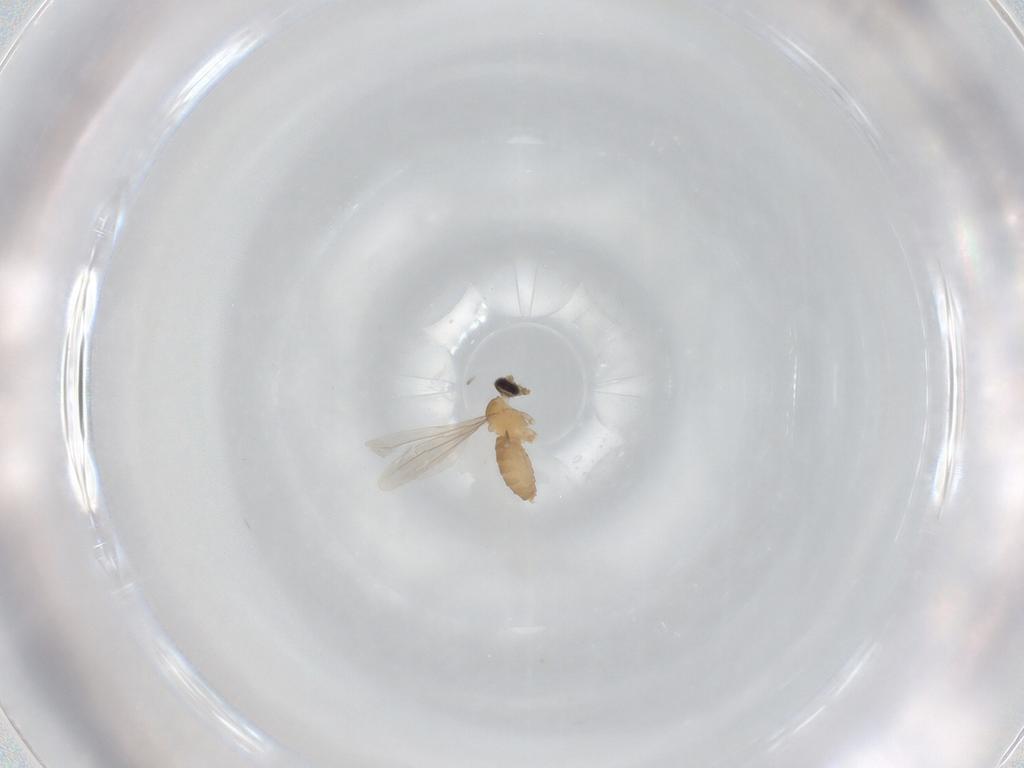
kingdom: Animalia
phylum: Arthropoda
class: Insecta
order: Diptera
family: Cecidomyiidae
